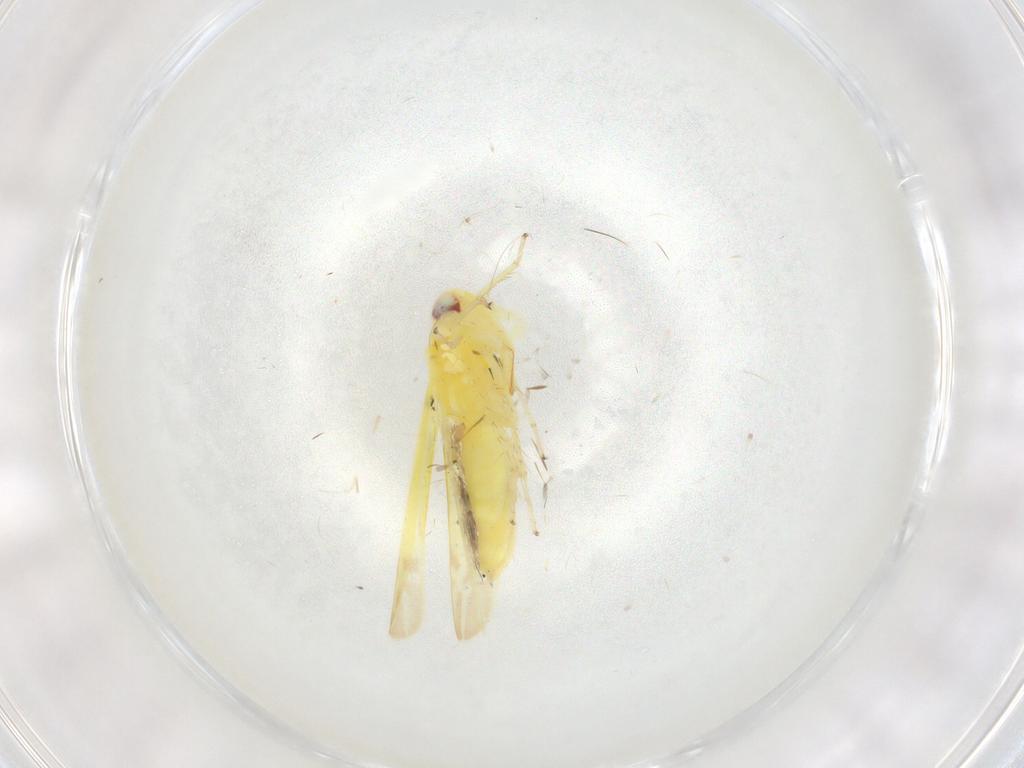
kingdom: Animalia
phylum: Arthropoda
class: Insecta
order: Hemiptera
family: Cicadellidae
